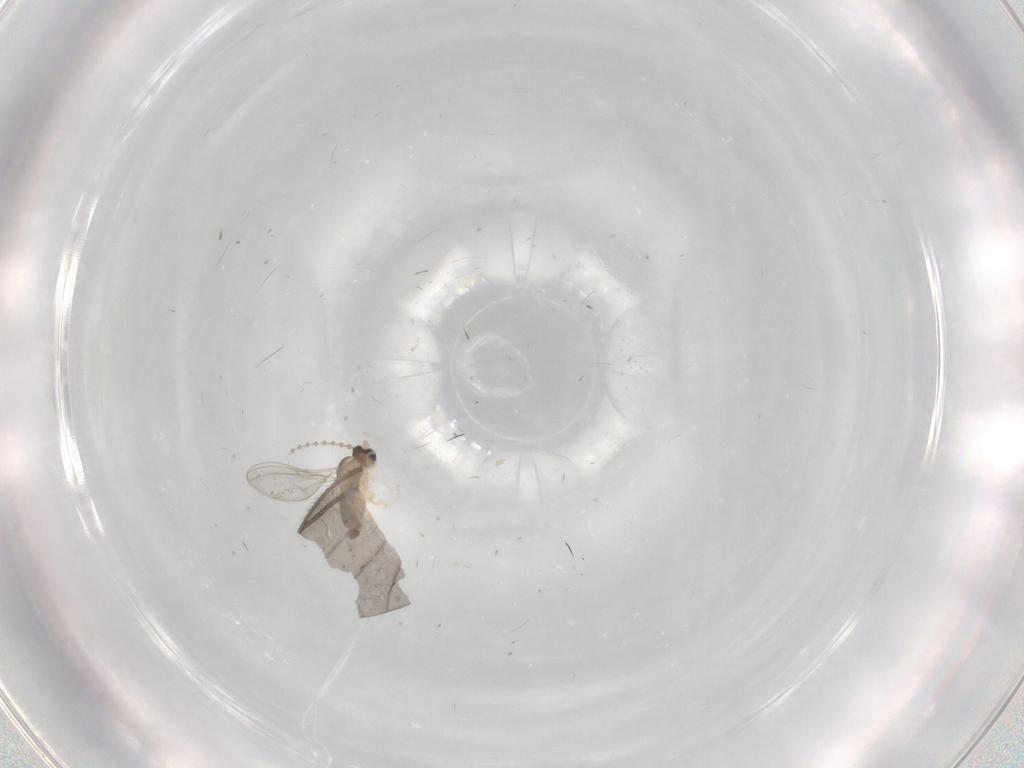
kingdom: Animalia
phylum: Arthropoda
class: Insecta
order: Diptera
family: Cecidomyiidae
